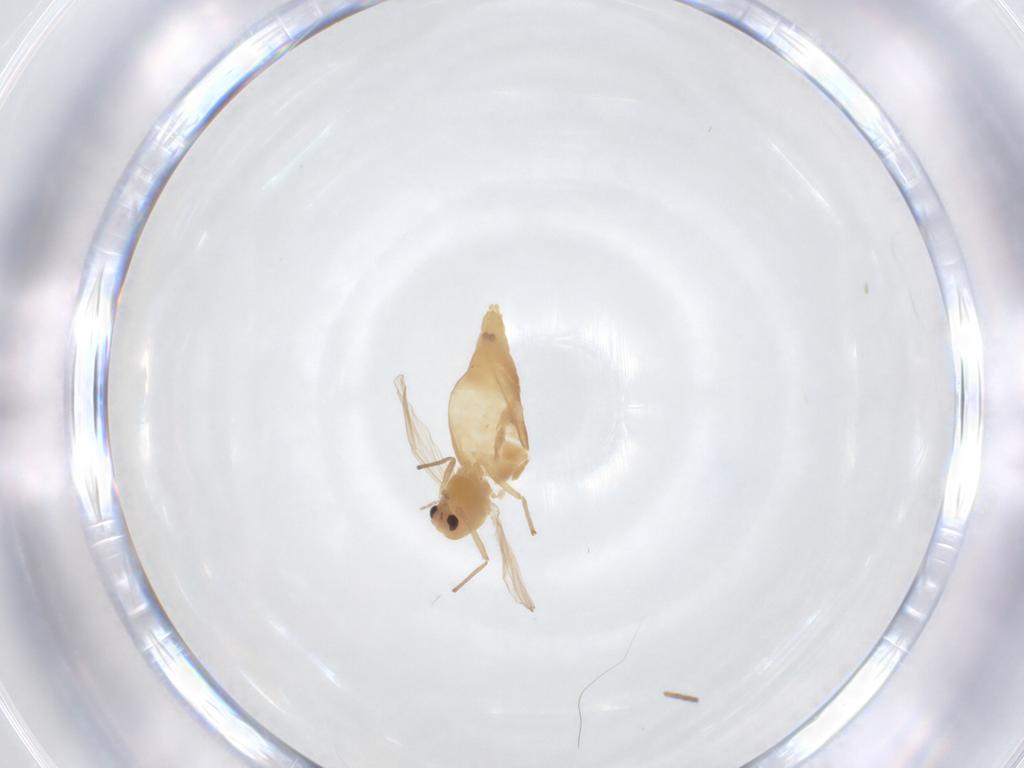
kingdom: Animalia
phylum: Arthropoda
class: Insecta
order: Diptera
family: Chironomidae
